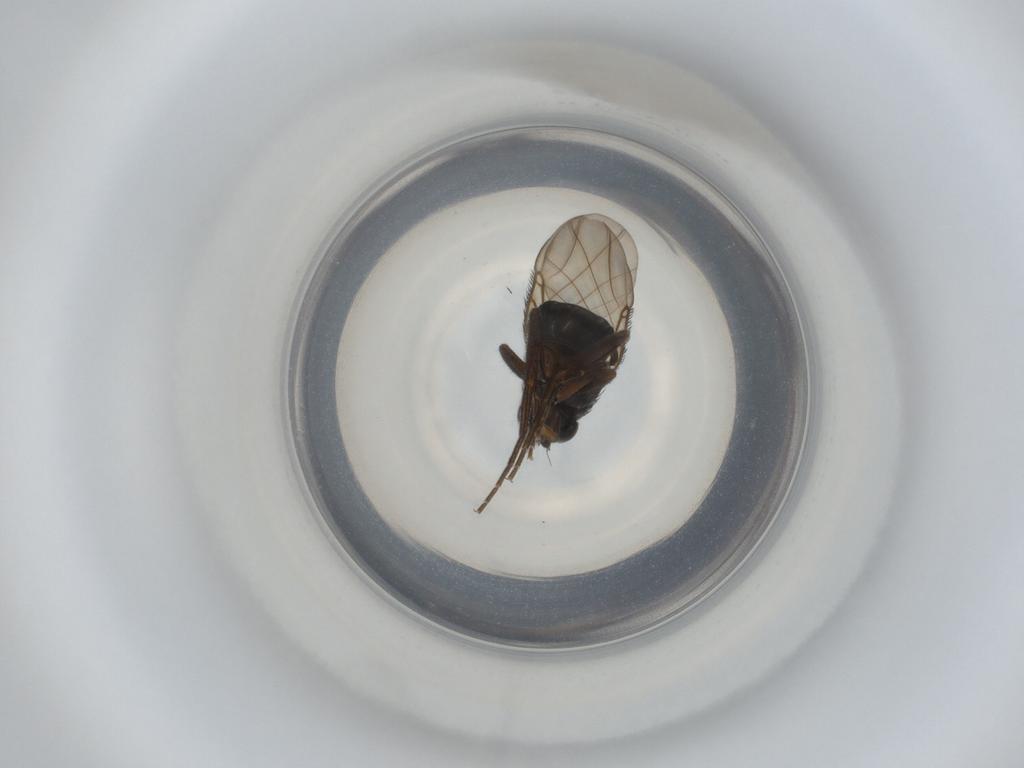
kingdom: Animalia
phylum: Arthropoda
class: Insecta
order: Diptera
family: Phoridae
